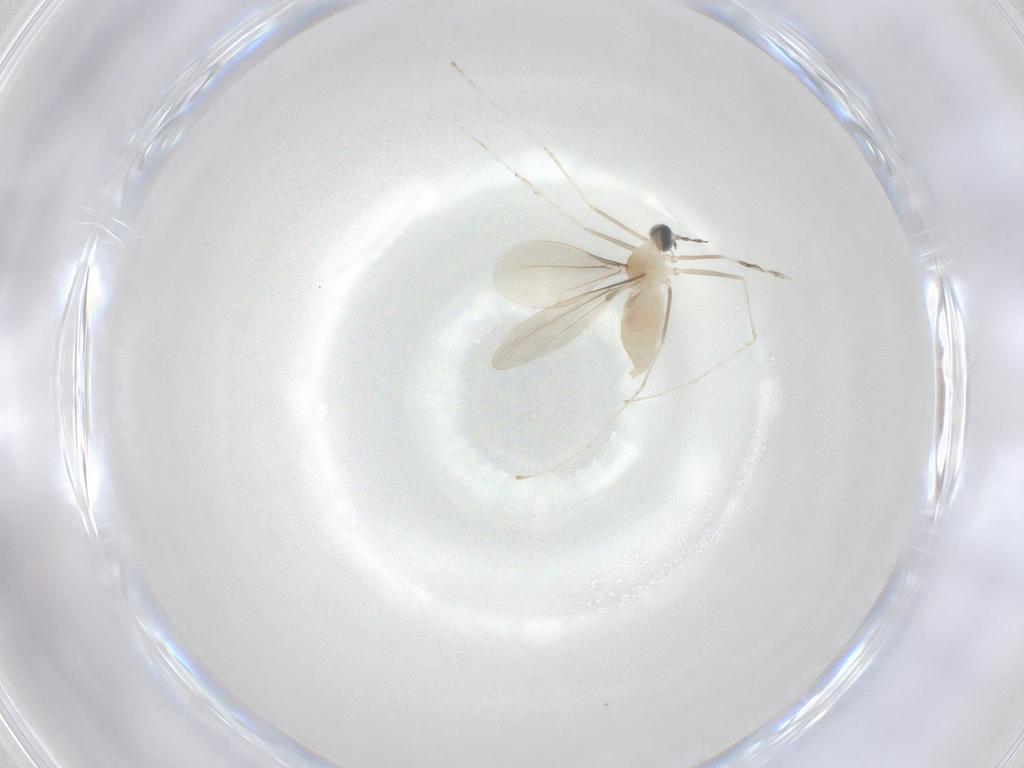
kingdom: Animalia
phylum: Arthropoda
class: Insecta
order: Diptera
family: Cecidomyiidae
